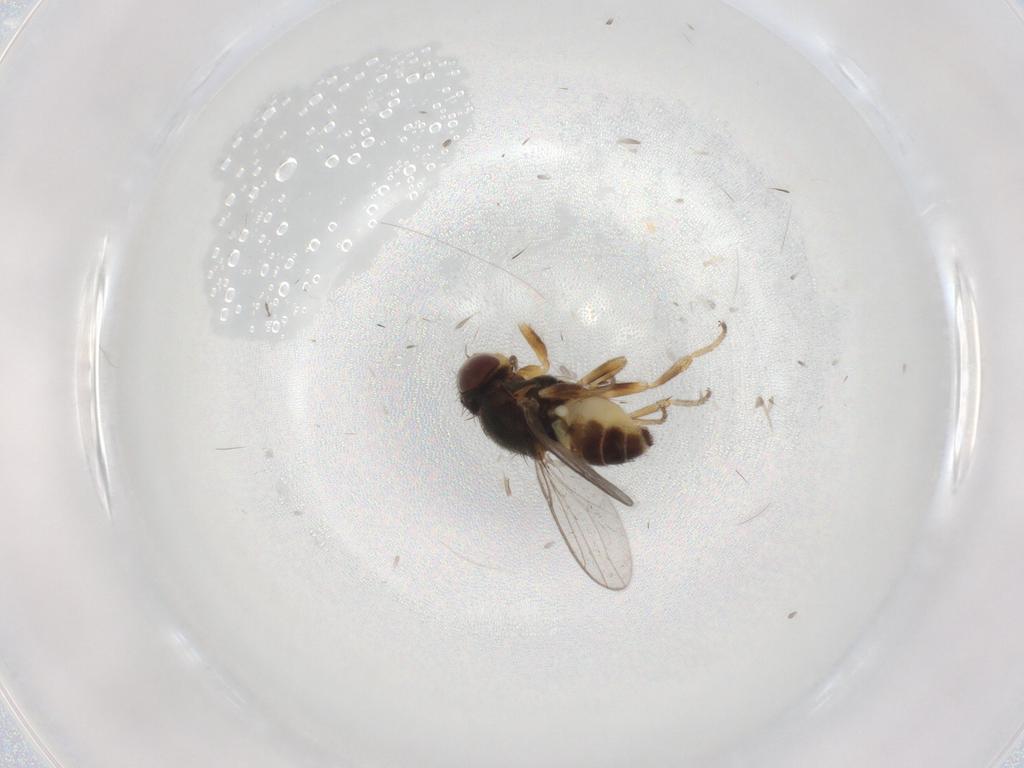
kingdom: Animalia
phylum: Arthropoda
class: Insecta
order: Diptera
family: Chloropidae
